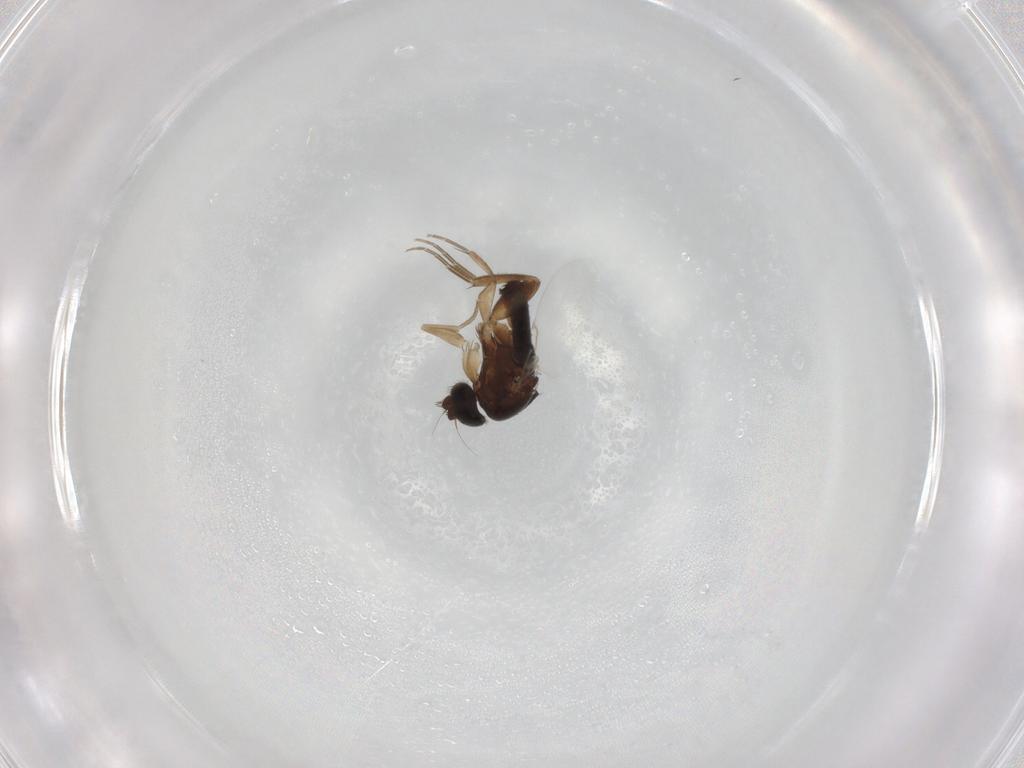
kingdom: Animalia
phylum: Arthropoda
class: Insecta
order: Diptera
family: Phoridae
